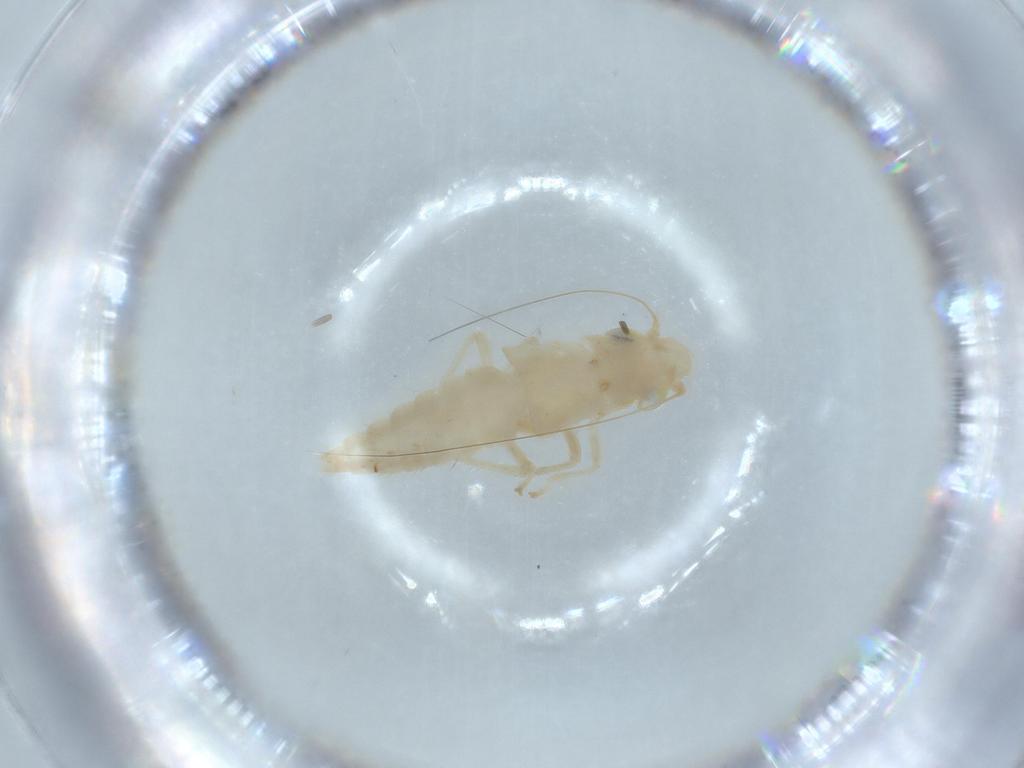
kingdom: Animalia
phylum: Arthropoda
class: Insecta
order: Hemiptera
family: Cicadellidae
